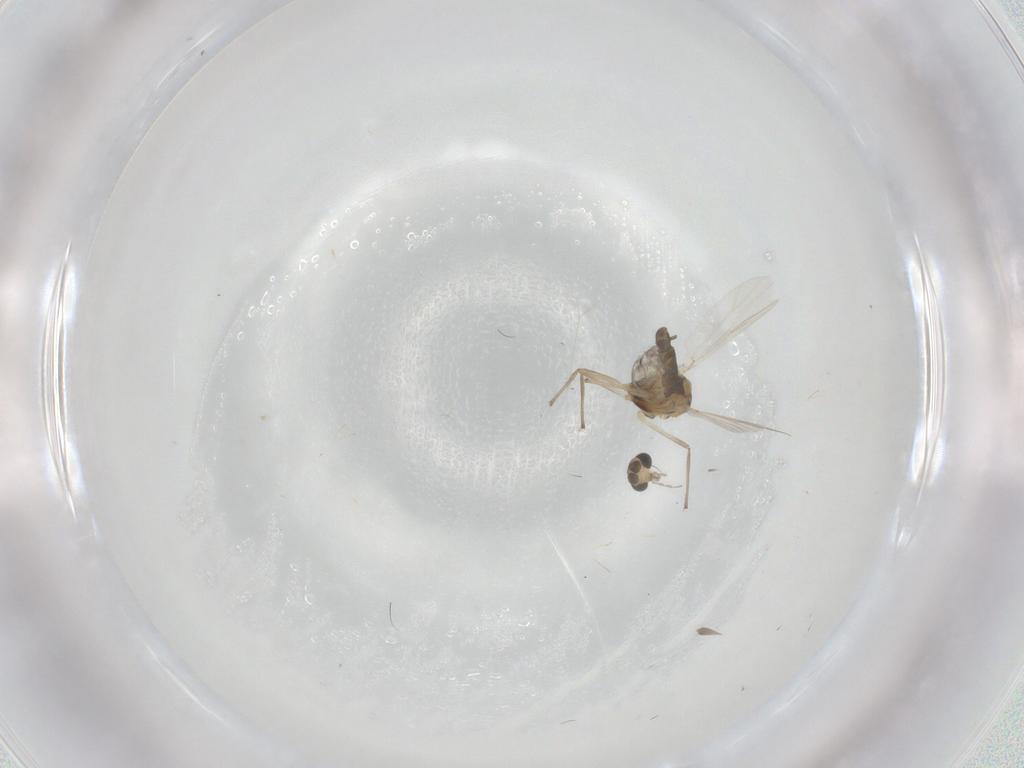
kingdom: Animalia
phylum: Arthropoda
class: Insecta
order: Diptera
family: Chironomidae
